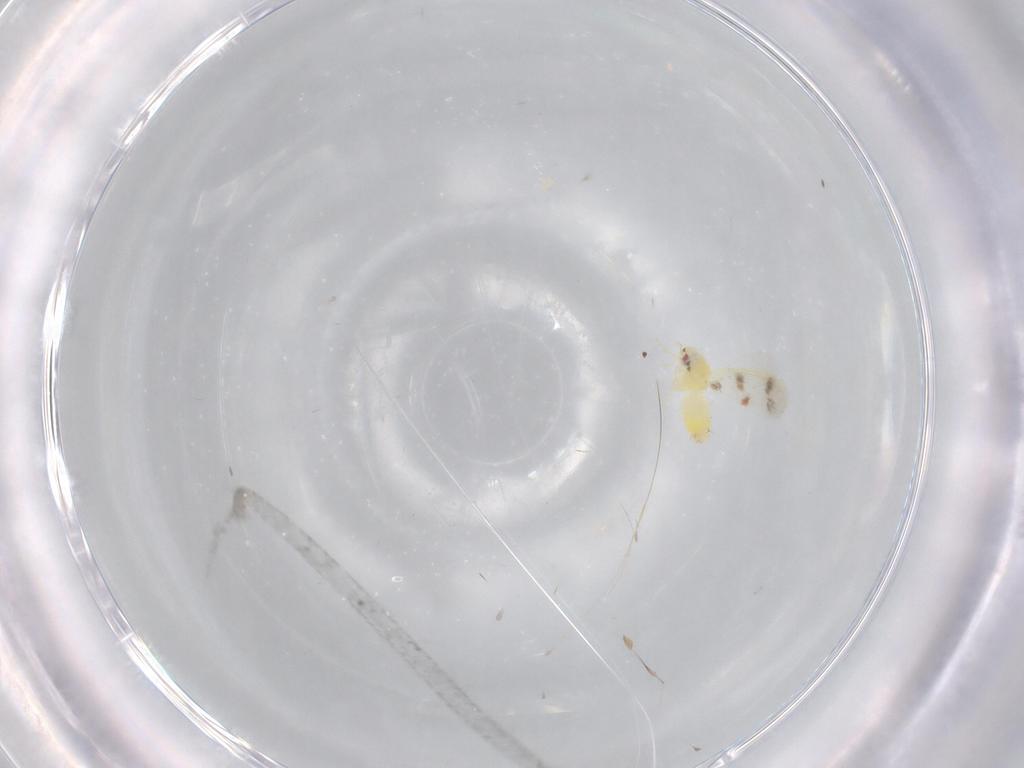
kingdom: Animalia
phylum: Arthropoda
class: Insecta
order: Hemiptera
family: Aleyrodidae
